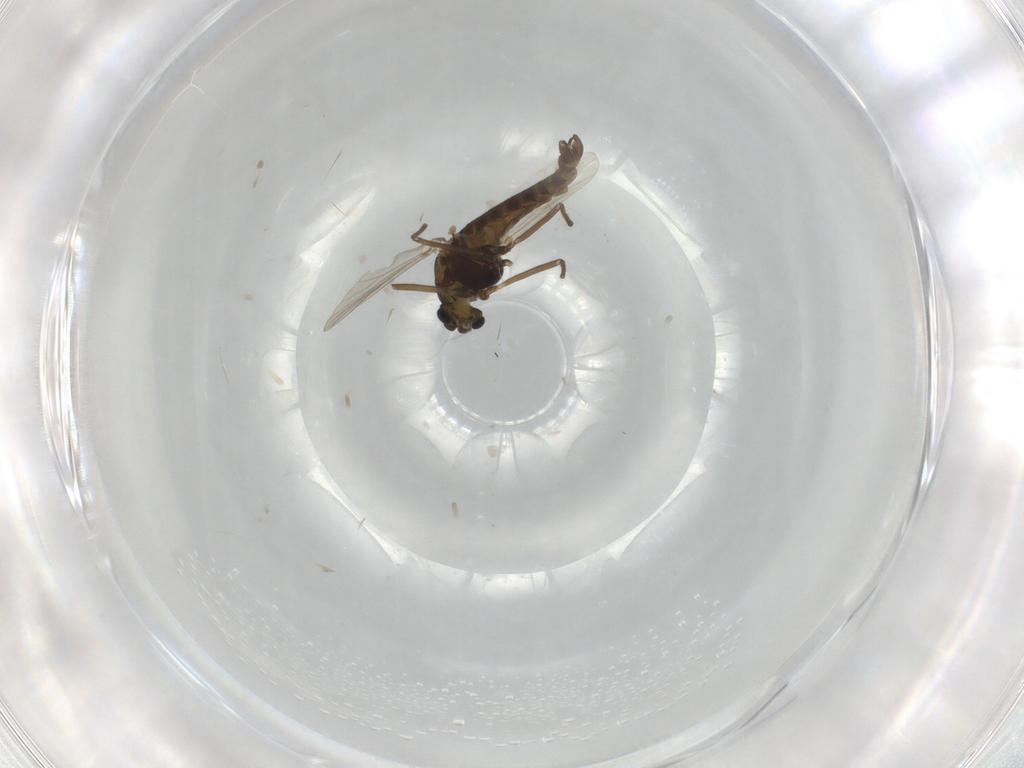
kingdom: Animalia
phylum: Arthropoda
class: Insecta
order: Diptera
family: Chironomidae
